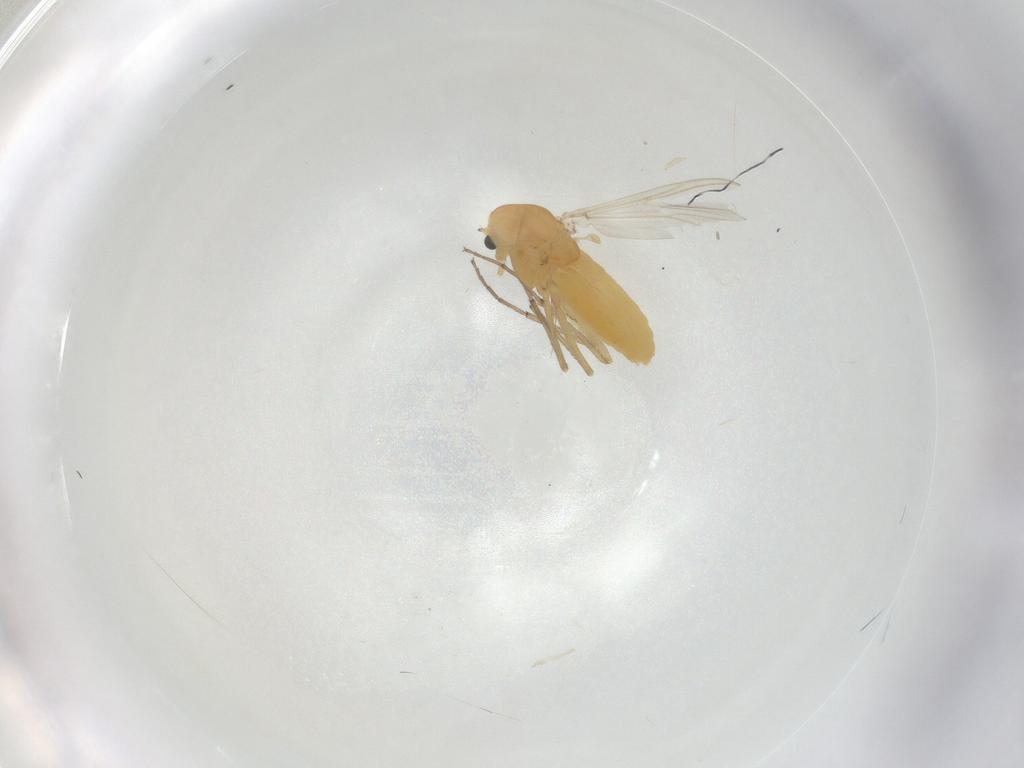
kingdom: Animalia
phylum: Arthropoda
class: Insecta
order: Diptera
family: Chironomidae
